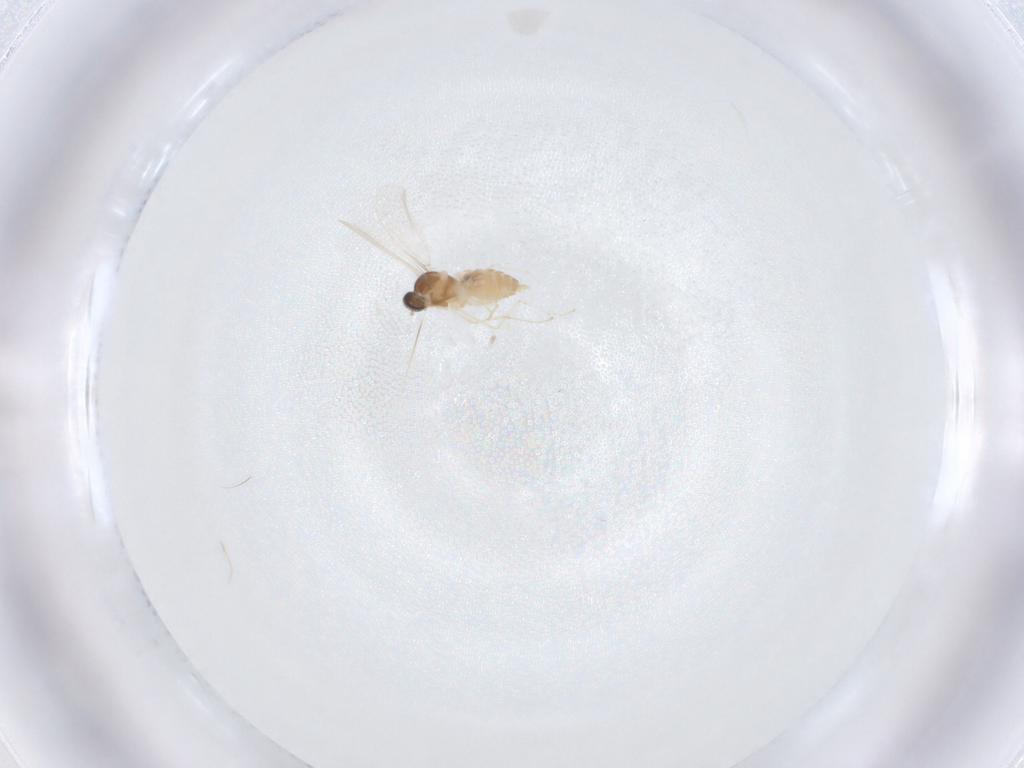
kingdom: Animalia
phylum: Arthropoda
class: Insecta
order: Diptera
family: Cecidomyiidae
